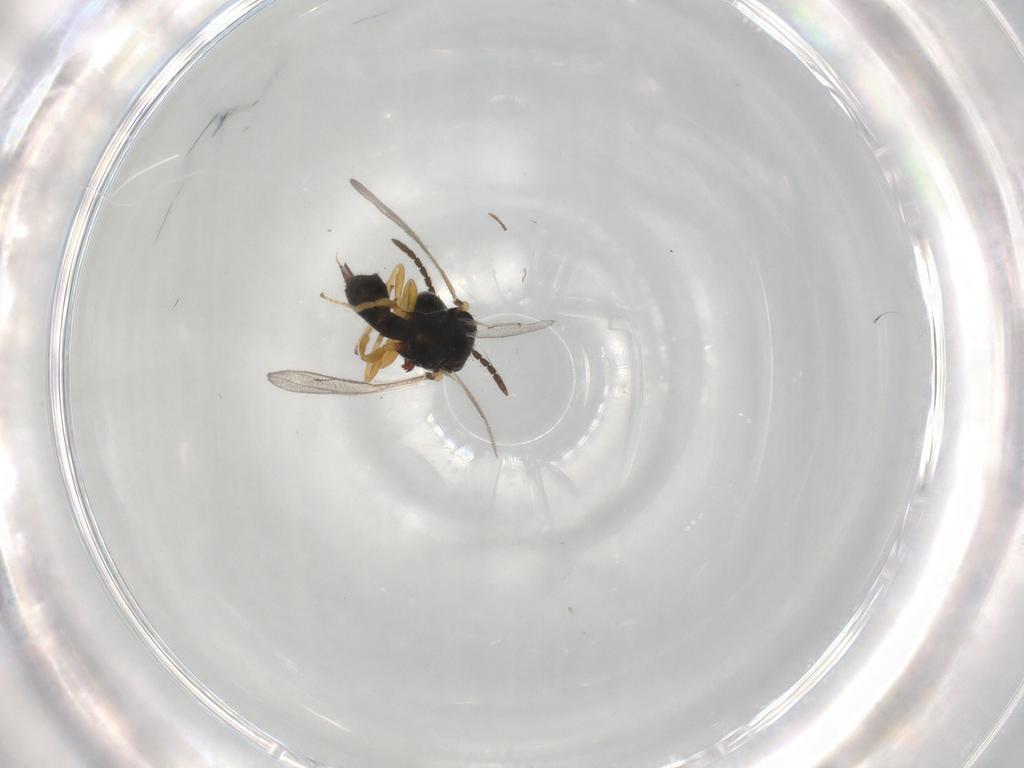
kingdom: Animalia
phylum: Arthropoda
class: Insecta
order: Hymenoptera
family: Pteromalidae
